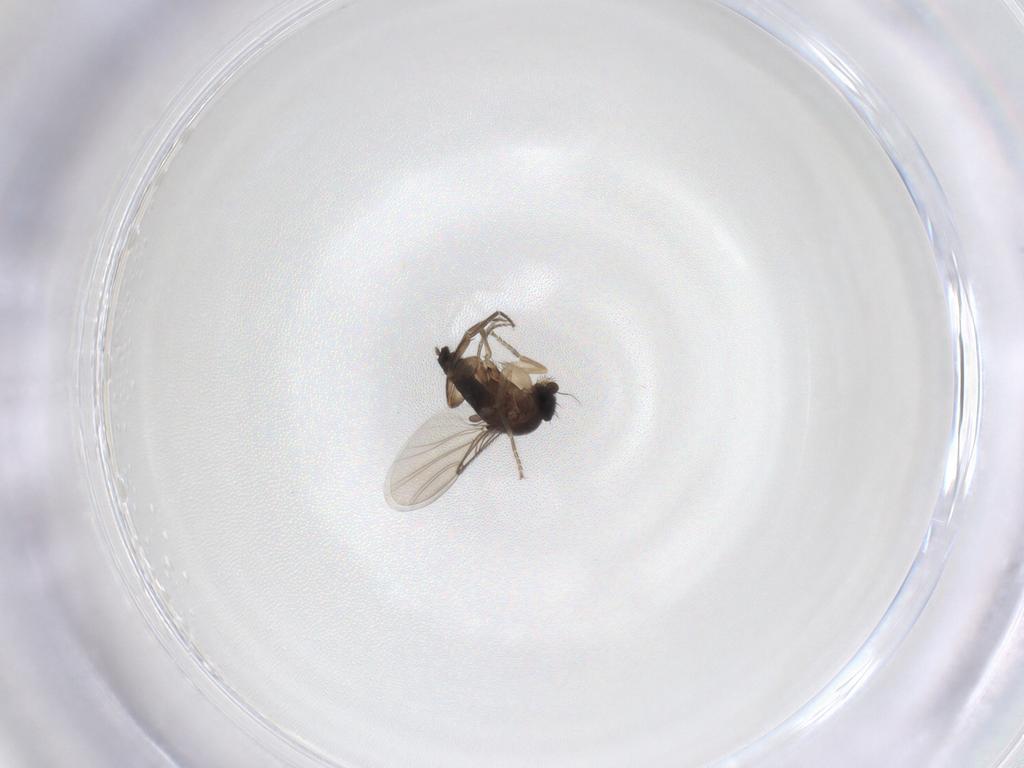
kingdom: Animalia
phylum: Arthropoda
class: Insecta
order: Diptera
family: Phoridae
